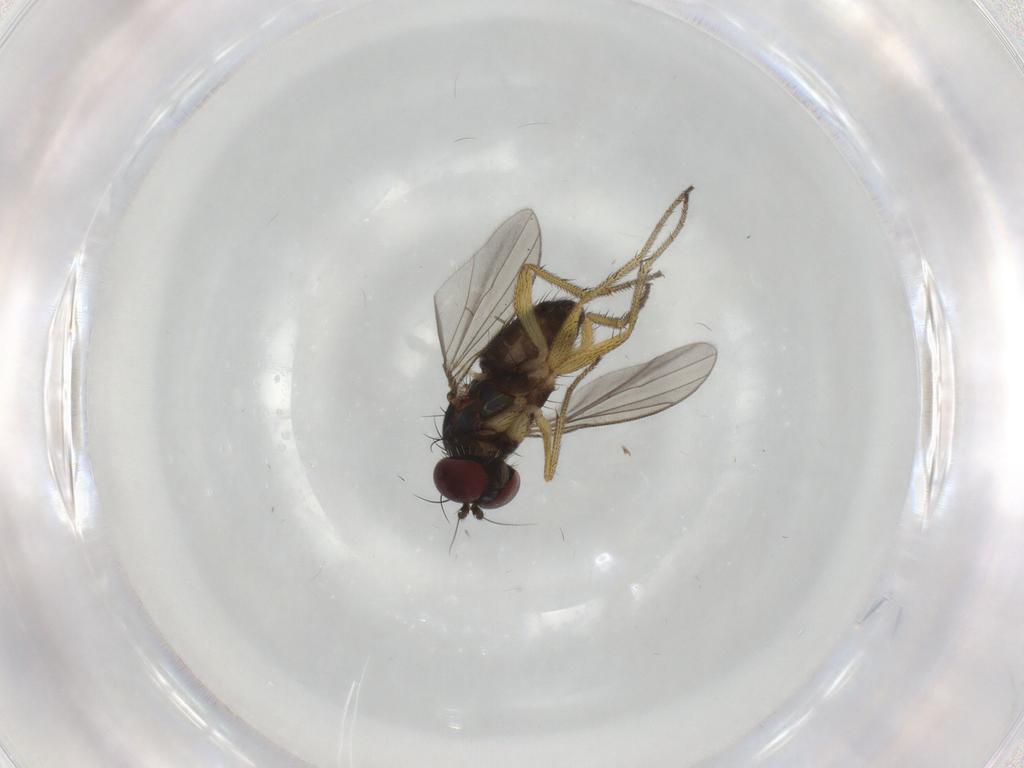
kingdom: Animalia
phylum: Arthropoda
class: Insecta
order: Diptera
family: Dolichopodidae
